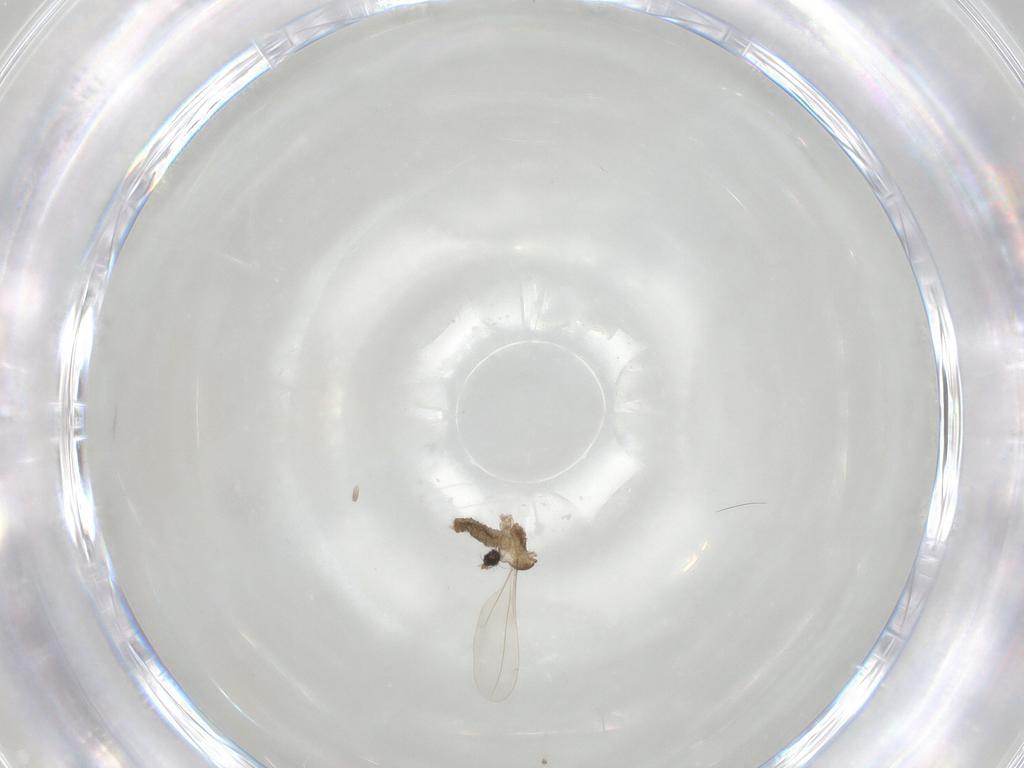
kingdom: Animalia
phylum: Arthropoda
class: Insecta
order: Diptera
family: Cecidomyiidae
